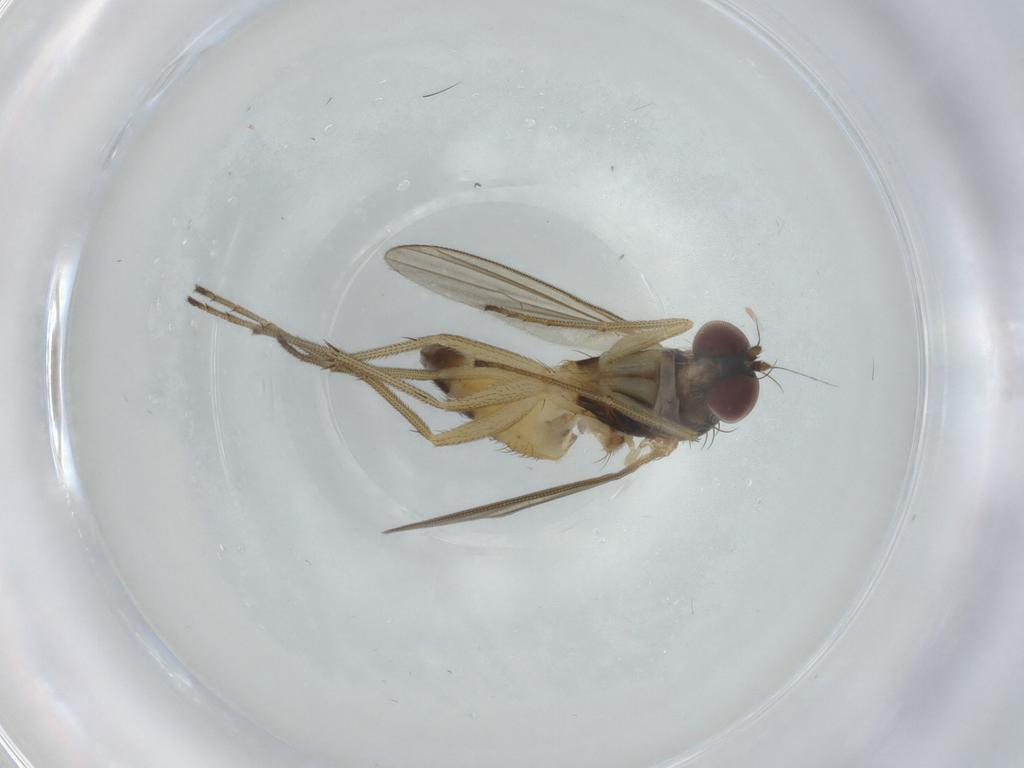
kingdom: Animalia
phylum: Arthropoda
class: Insecta
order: Diptera
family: Dolichopodidae
